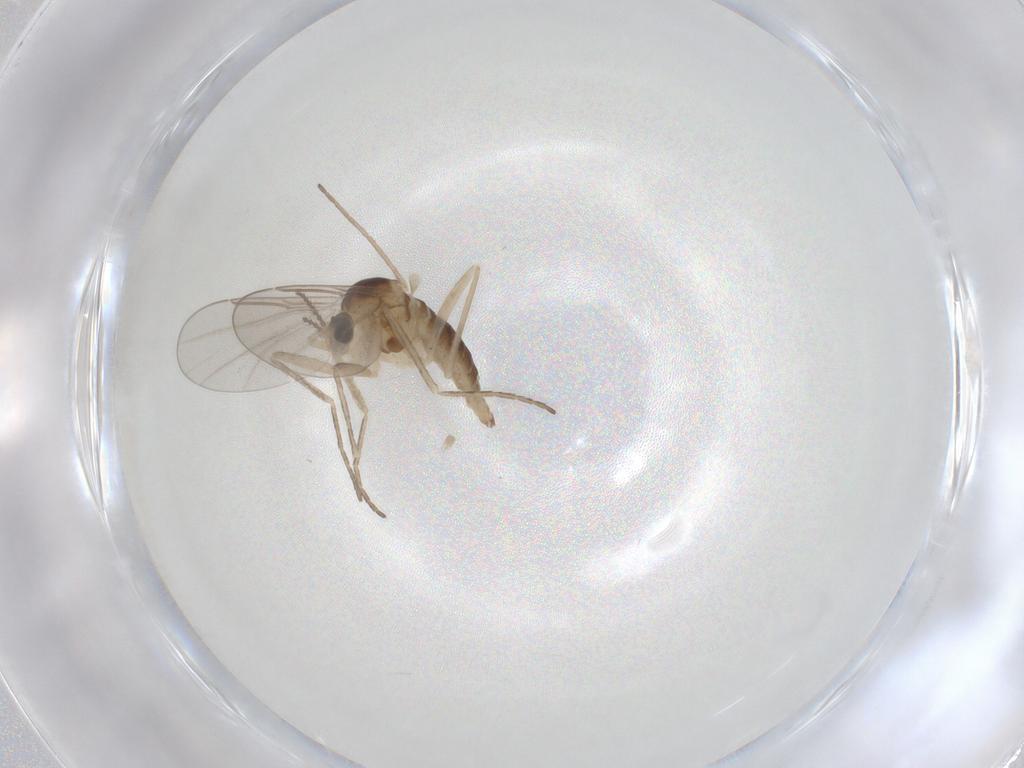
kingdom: Animalia
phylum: Arthropoda
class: Insecta
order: Diptera
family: Cecidomyiidae
